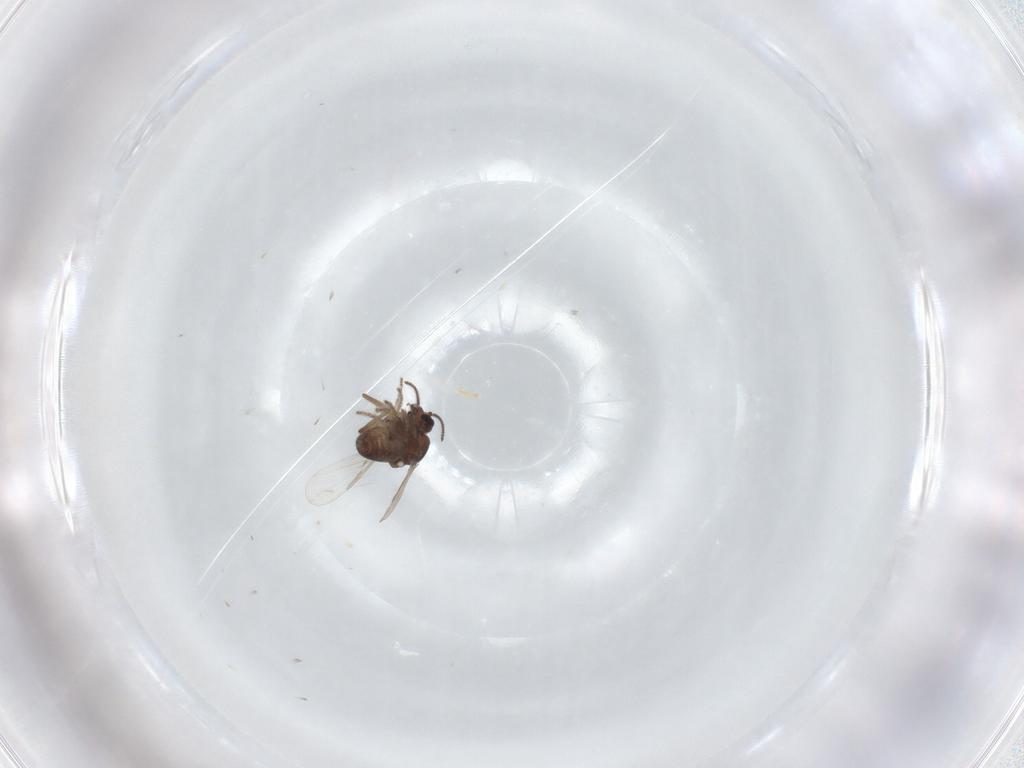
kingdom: Animalia
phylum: Arthropoda
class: Insecta
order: Diptera
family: Ceratopogonidae
